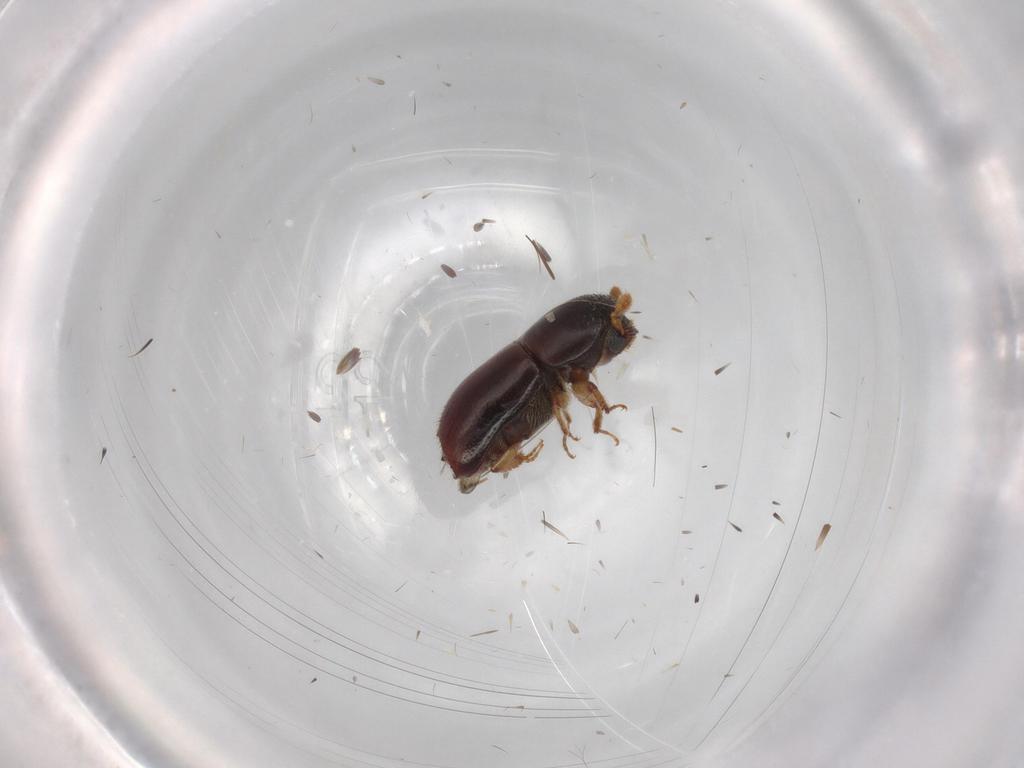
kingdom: Animalia
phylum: Arthropoda
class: Insecta
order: Coleoptera
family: Curculionidae
